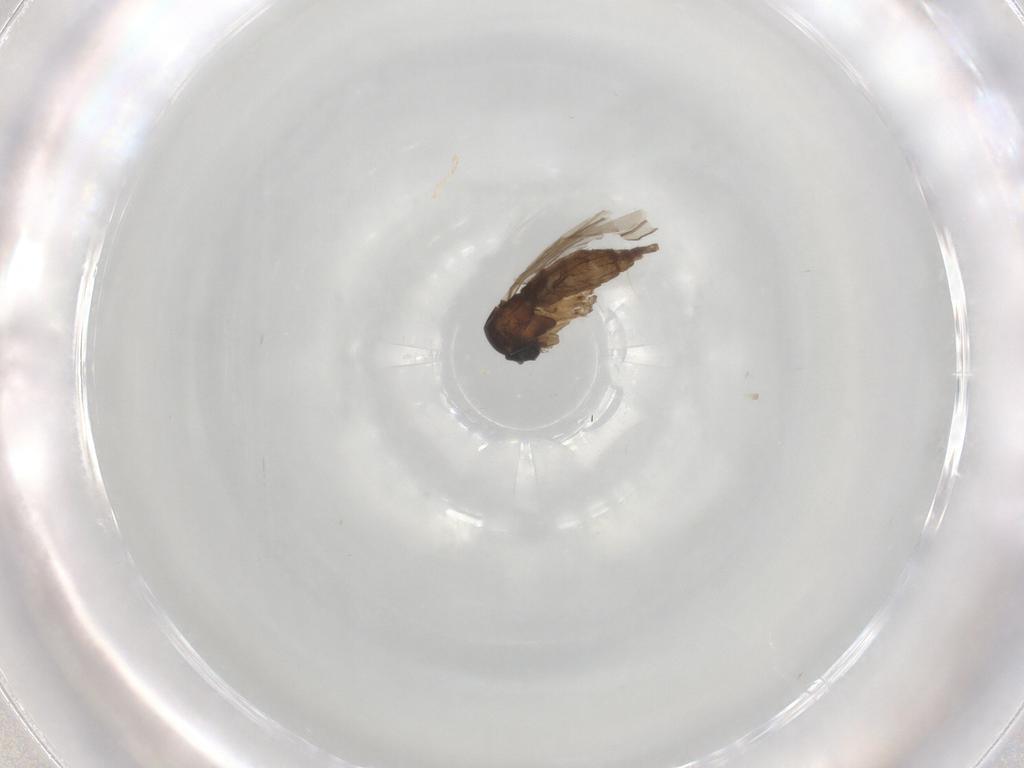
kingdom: Animalia
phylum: Arthropoda
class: Insecta
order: Diptera
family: Sciaridae
